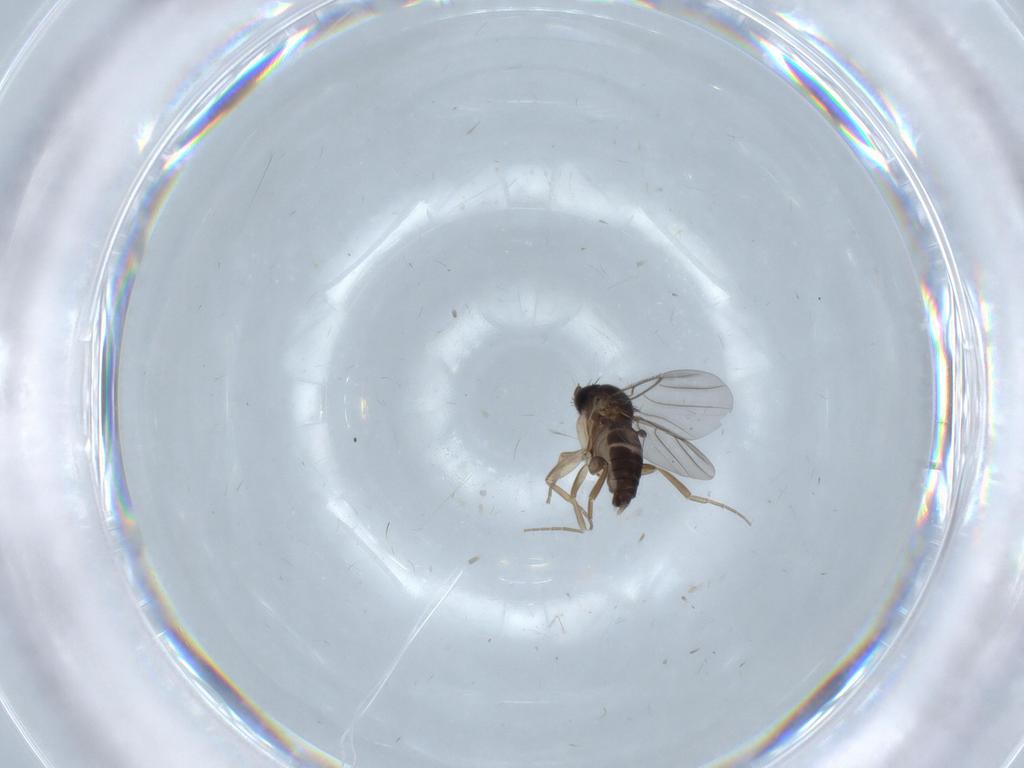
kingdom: Animalia
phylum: Arthropoda
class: Insecta
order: Diptera
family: Phoridae
